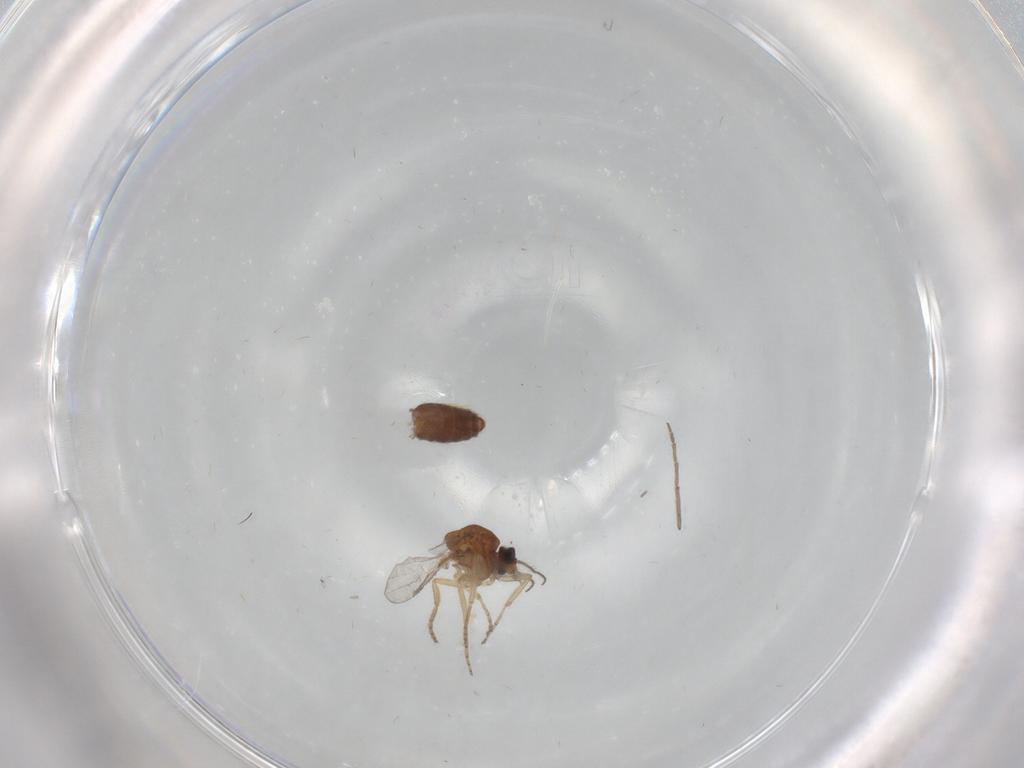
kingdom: Animalia
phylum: Arthropoda
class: Insecta
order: Diptera
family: Ceratopogonidae
